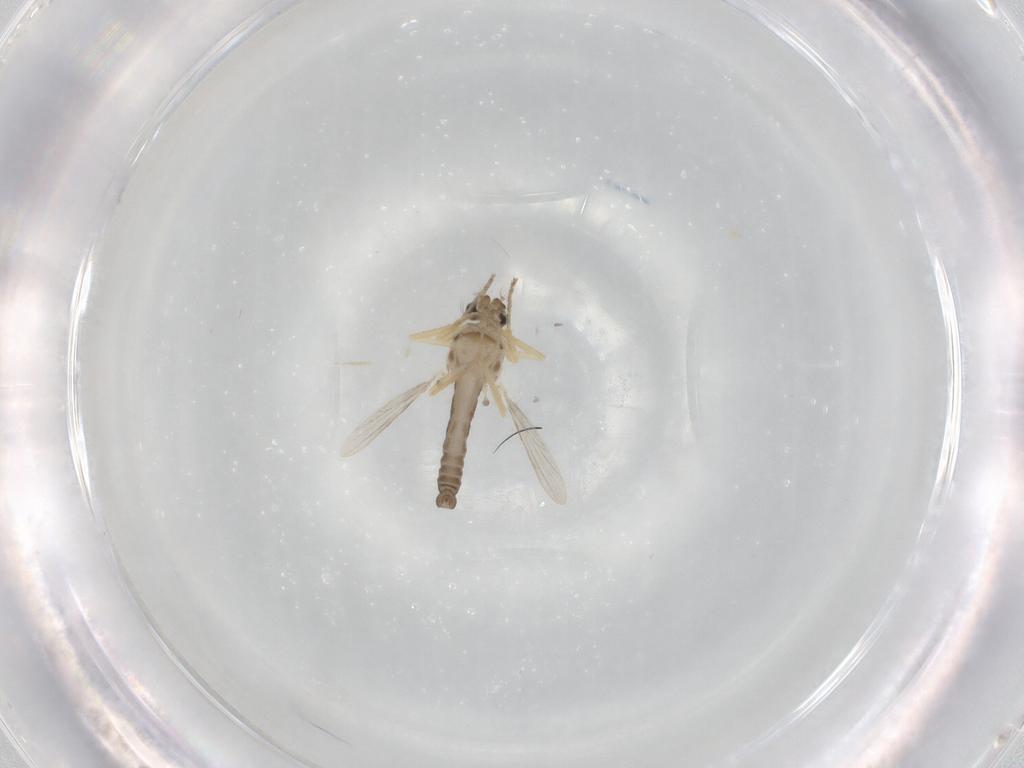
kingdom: Animalia
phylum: Arthropoda
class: Insecta
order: Diptera
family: Ceratopogonidae
